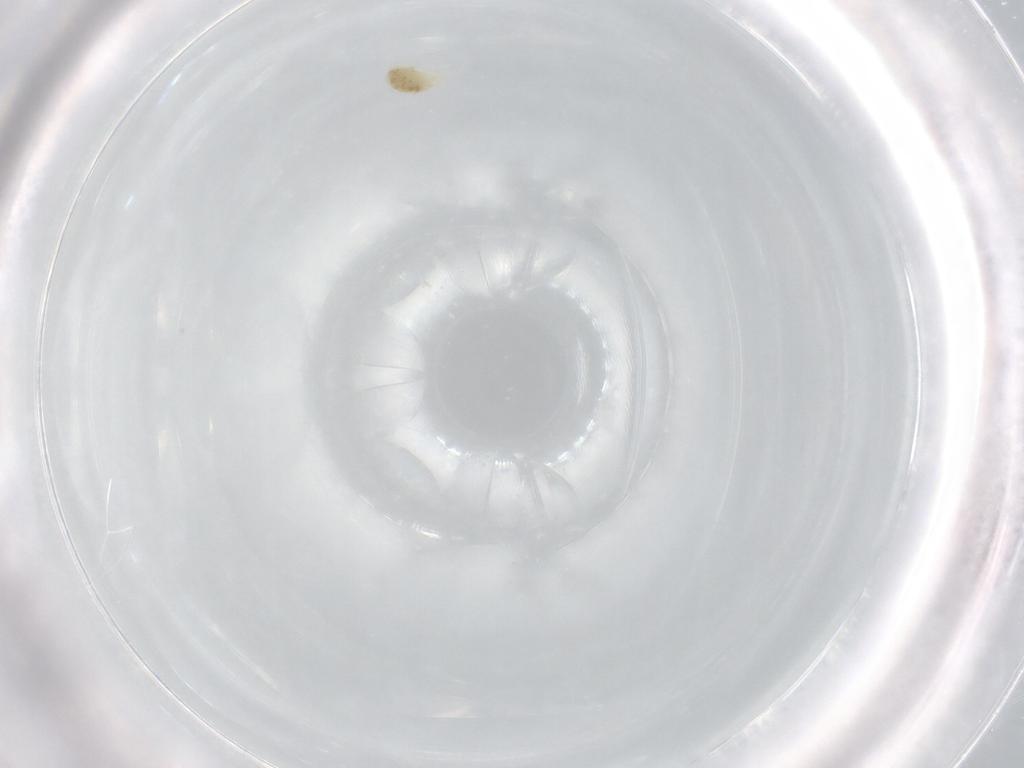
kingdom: Animalia
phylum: Arthropoda
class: Arachnida
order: Trombidiformes
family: Eupodidae
